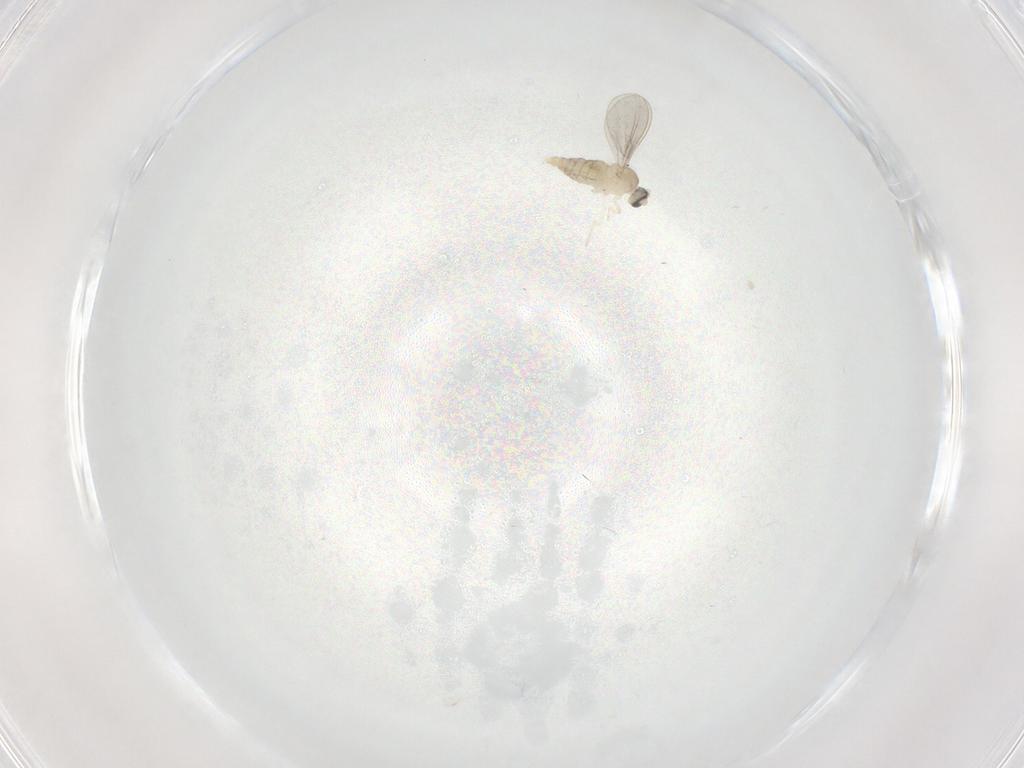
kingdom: Animalia
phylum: Arthropoda
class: Insecta
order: Diptera
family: Cecidomyiidae
